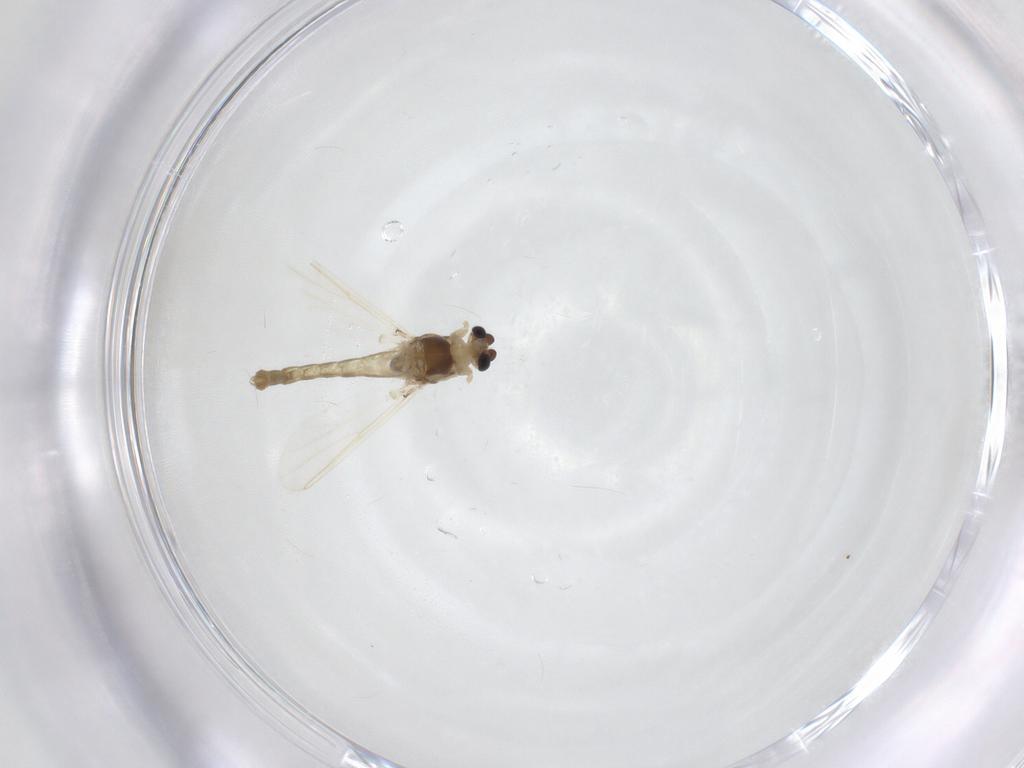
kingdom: Animalia
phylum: Arthropoda
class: Insecta
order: Diptera
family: Chironomidae
